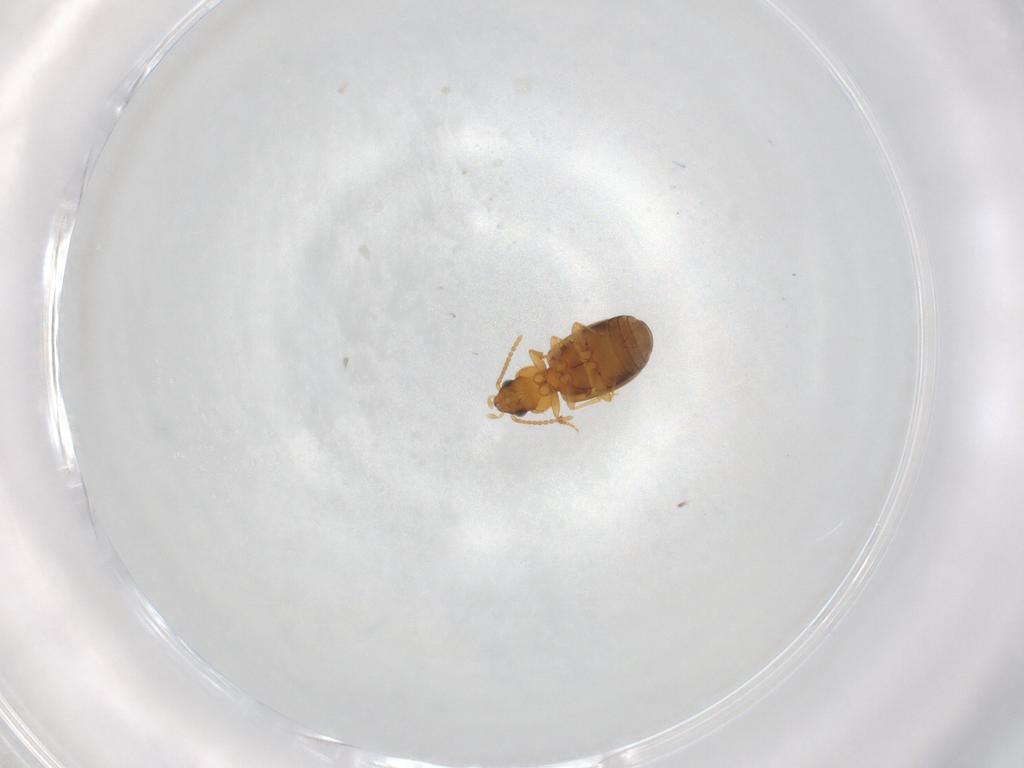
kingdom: Animalia
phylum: Arthropoda
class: Insecta
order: Coleoptera
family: Carabidae
